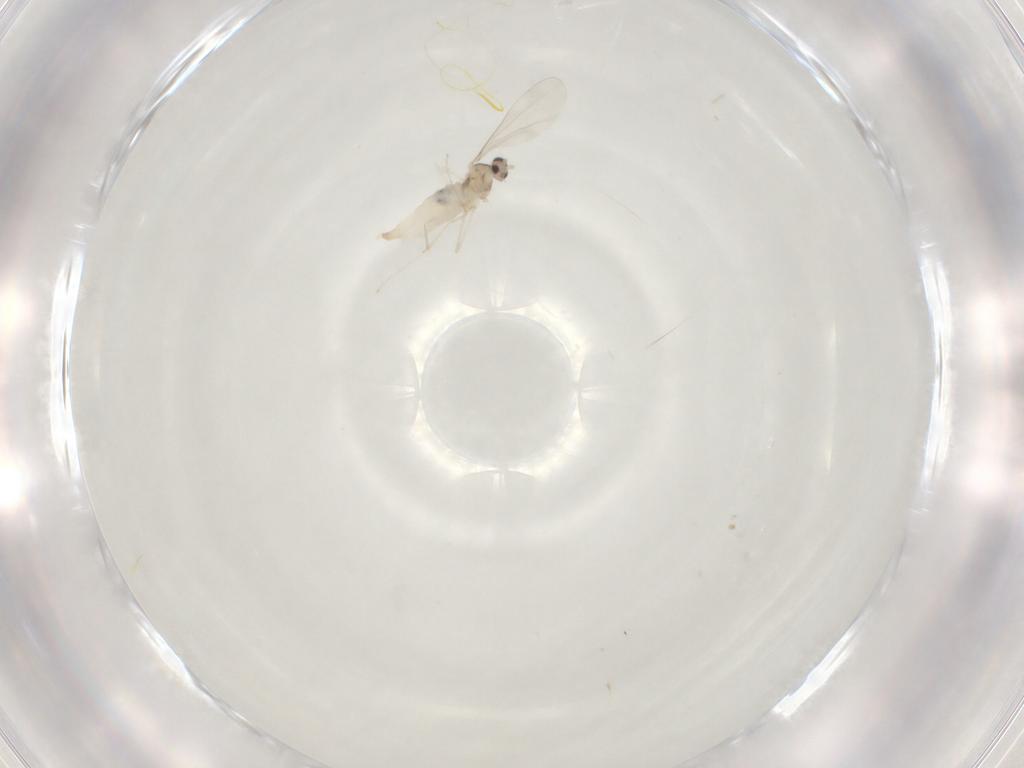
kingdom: Animalia
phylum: Arthropoda
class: Insecta
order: Diptera
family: Cecidomyiidae
